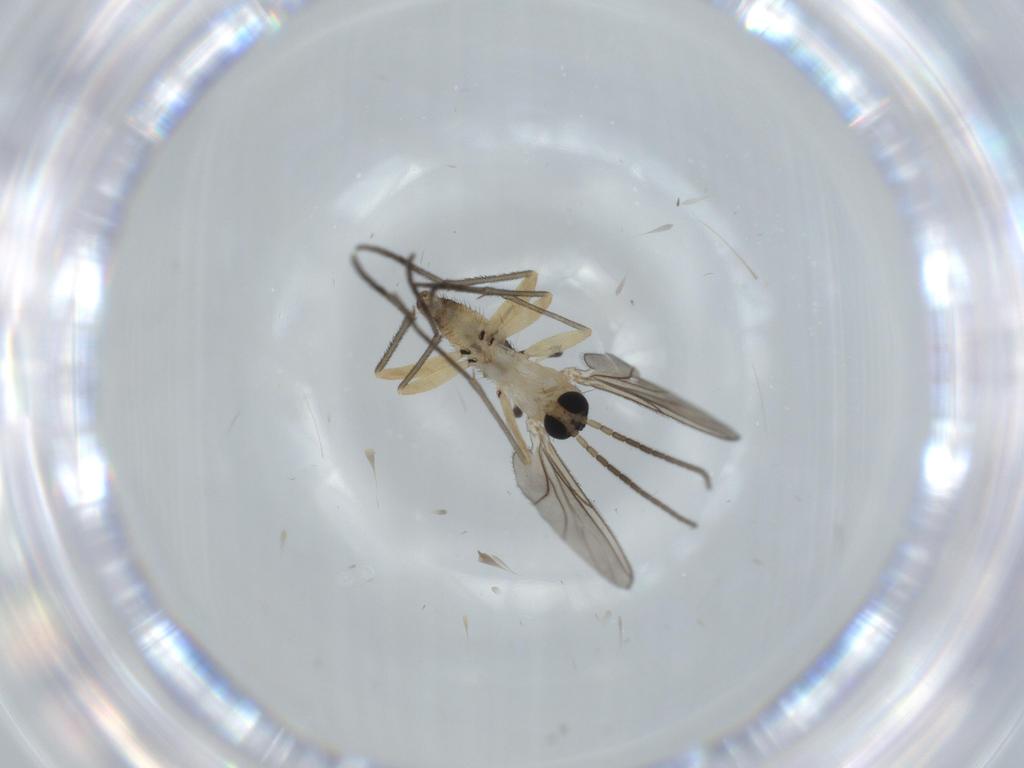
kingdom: Animalia
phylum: Arthropoda
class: Insecta
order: Diptera
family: Sciaridae
